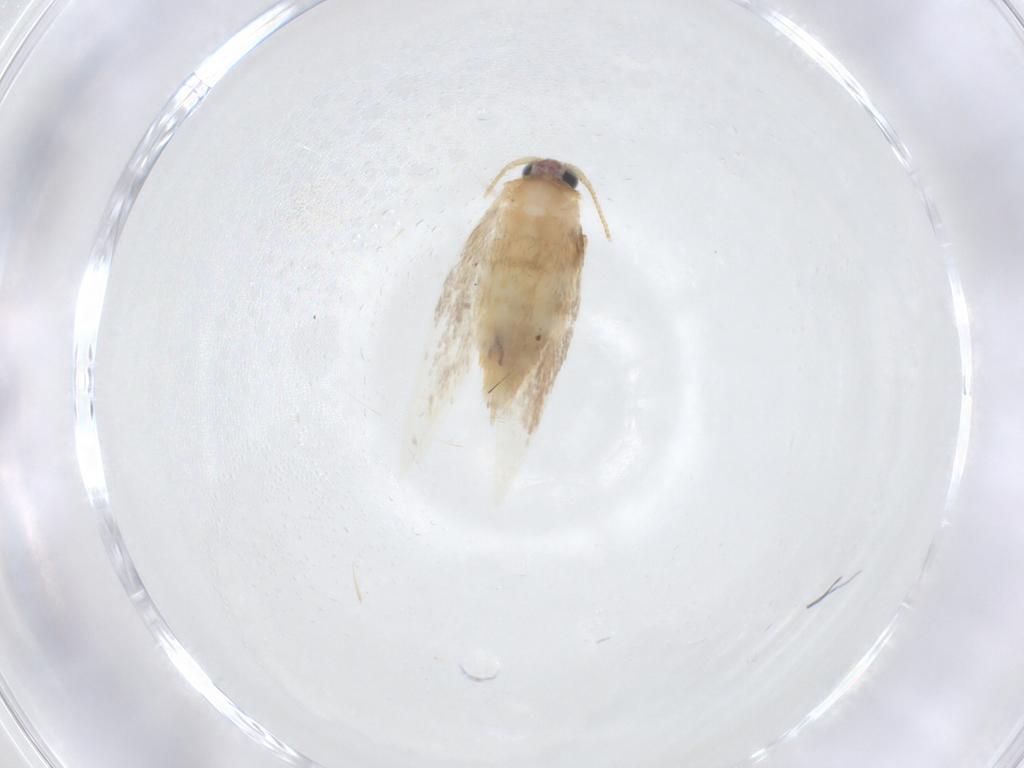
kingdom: Animalia
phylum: Arthropoda
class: Insecta
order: Lepidoptera
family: Nepticulidae
